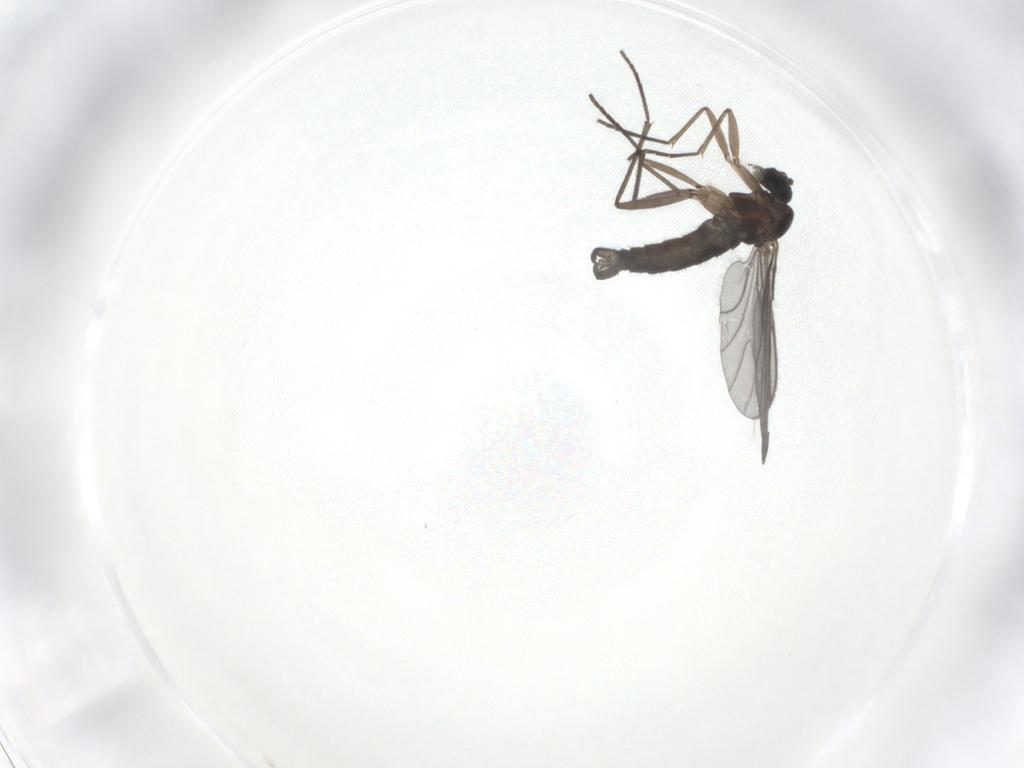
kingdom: Animalia
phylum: Arthropoda
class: Insecta
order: Diptera
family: Sciaridae
